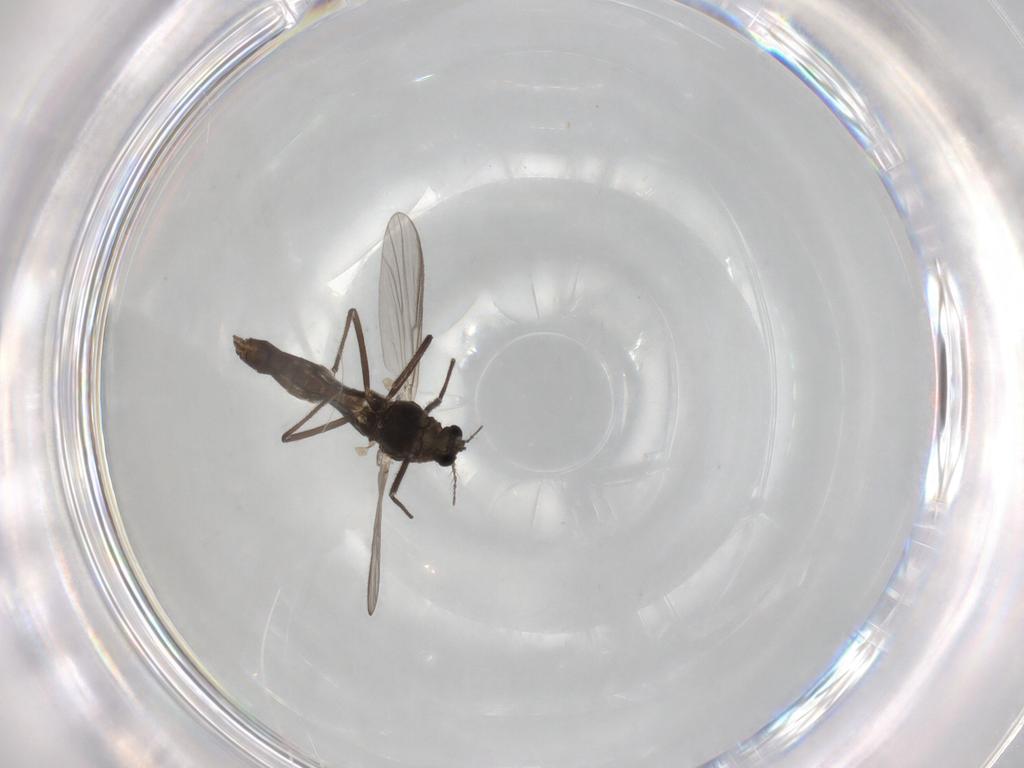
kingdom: Animalia
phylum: Arthropoda
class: Insecta
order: Diptera
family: Chironomidae
